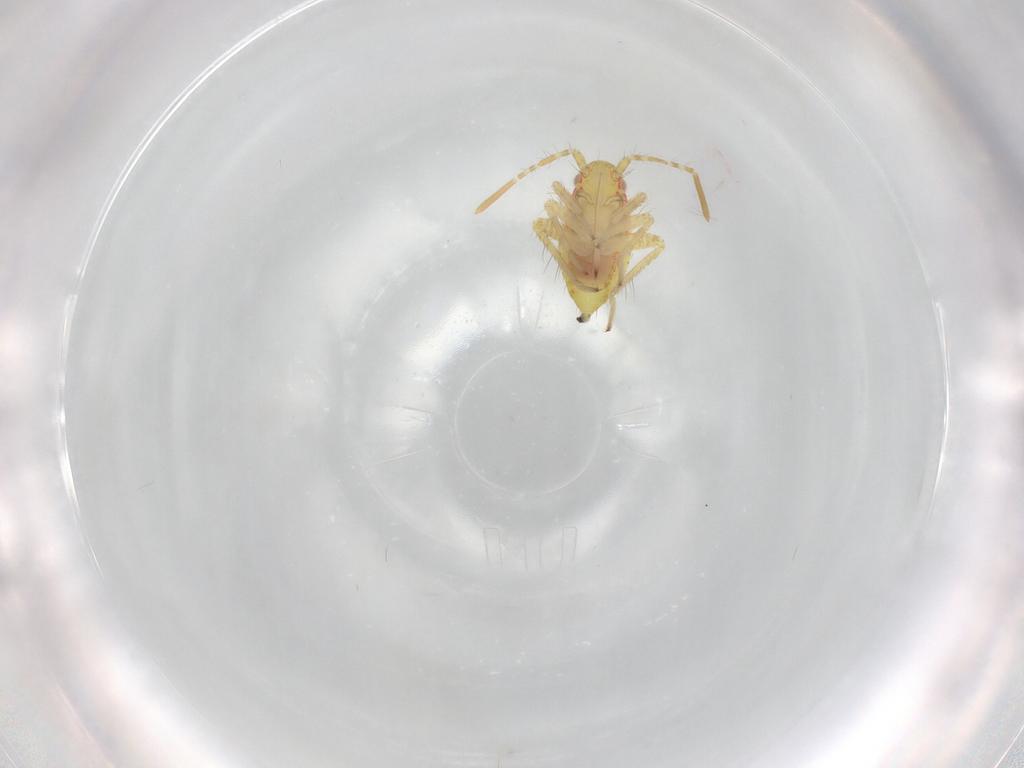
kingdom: Animalia
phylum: Arthropoda
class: Insecta
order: Hemiptera
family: Miridae
